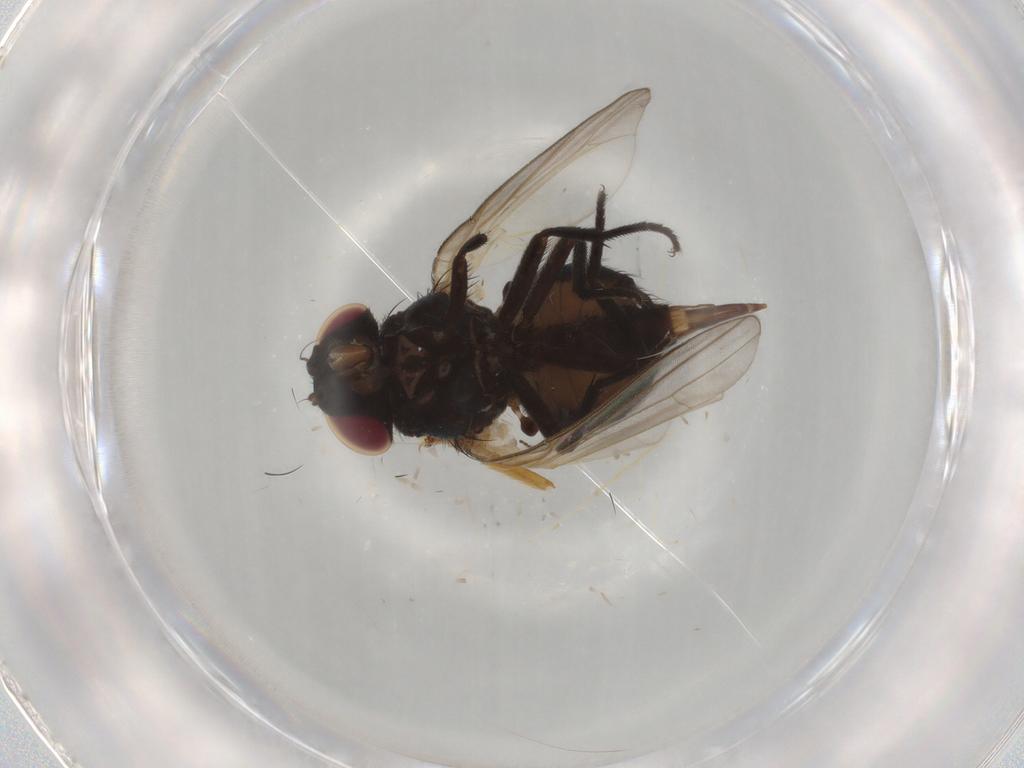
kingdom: Animalia
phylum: Arthropoda
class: Insecta
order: Diptera
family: Lonchaeidae
